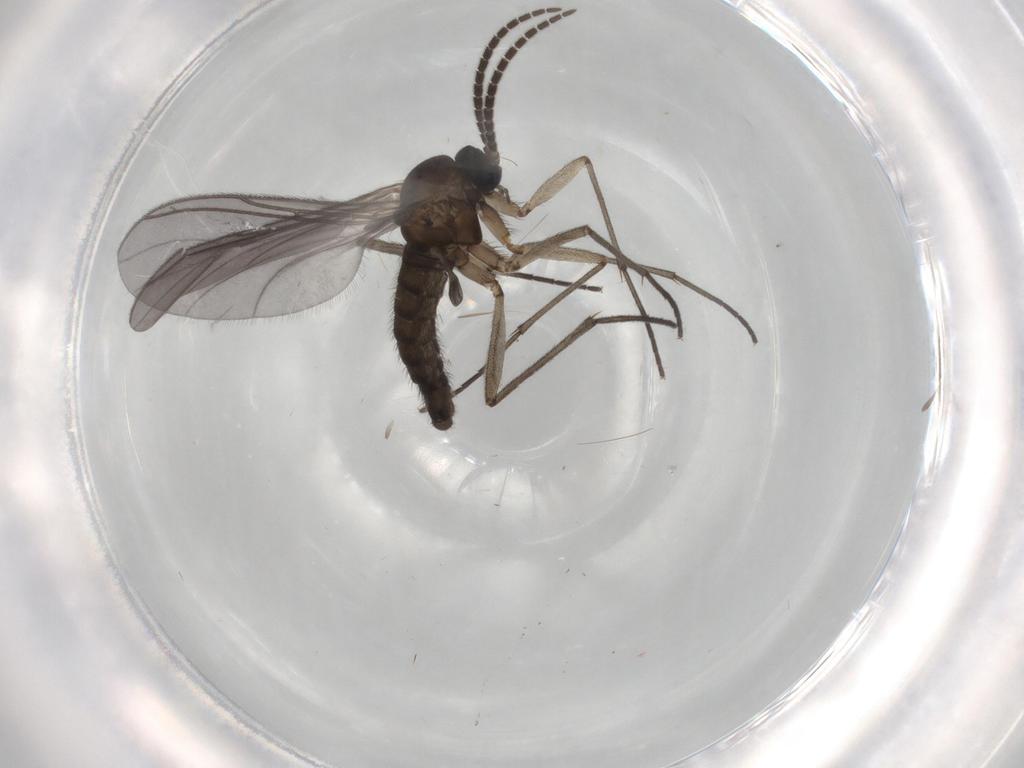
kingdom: Animalia
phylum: Arthropoda
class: Insecta
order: Diptera
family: Sciaridae
